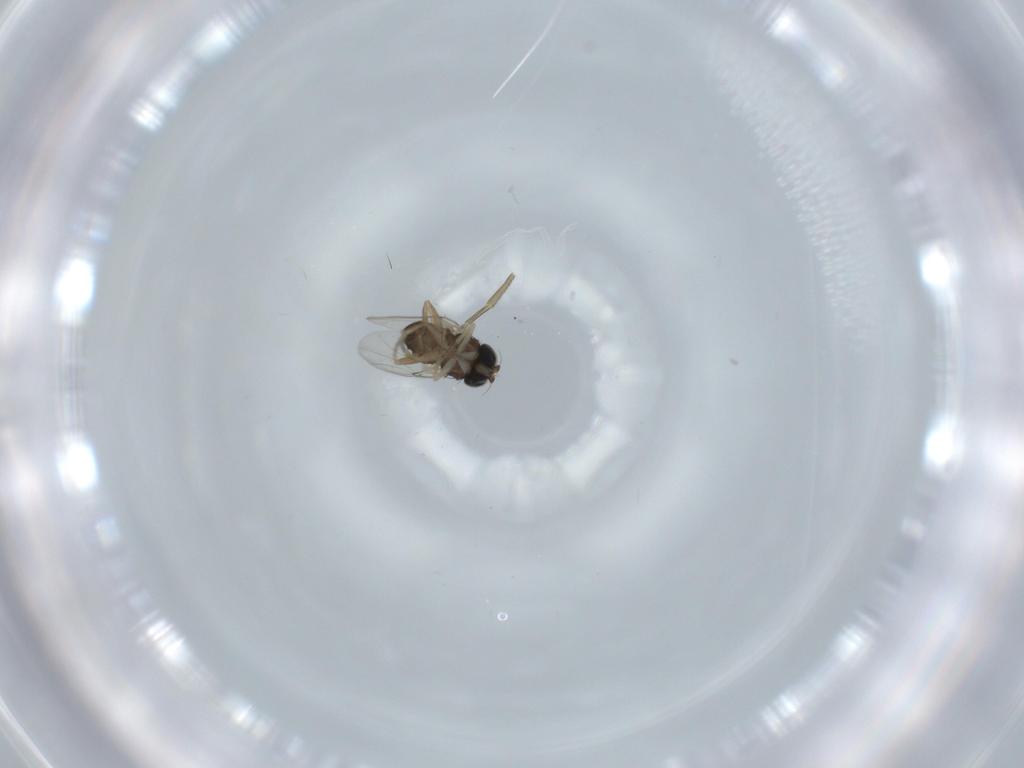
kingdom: Animalia
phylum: Arthropoda
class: Insecta
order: Diptera
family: Phoridae
